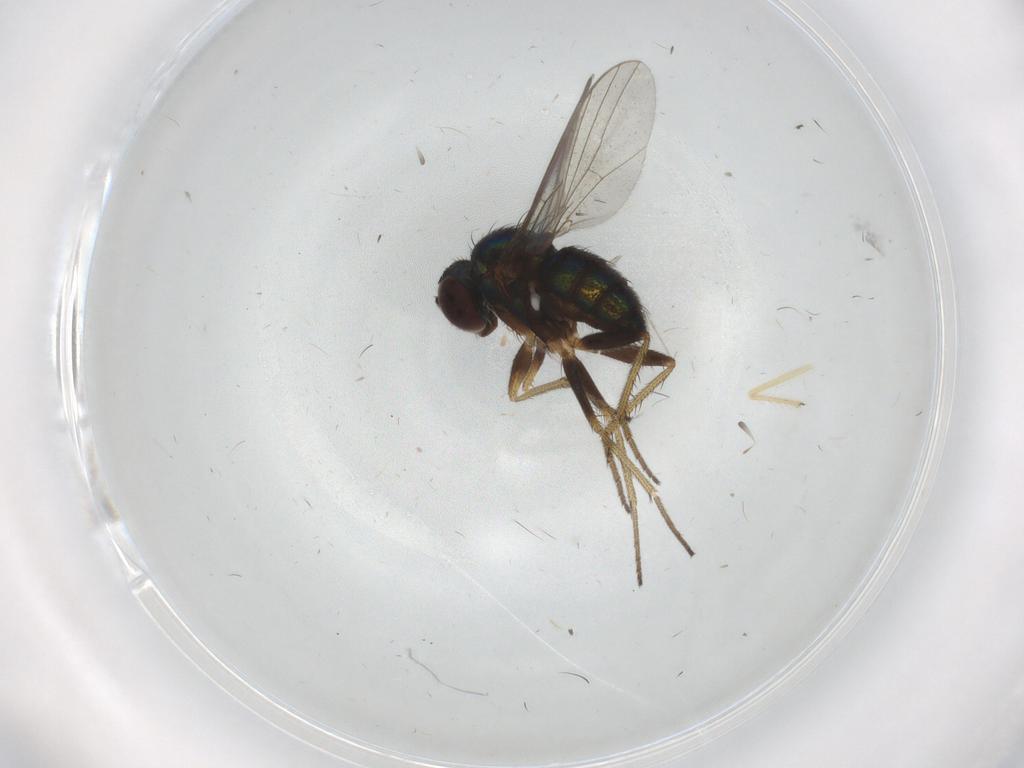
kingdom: Animalia
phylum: Arthropoda
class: Insecta
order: Diptera
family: Chironomidae
